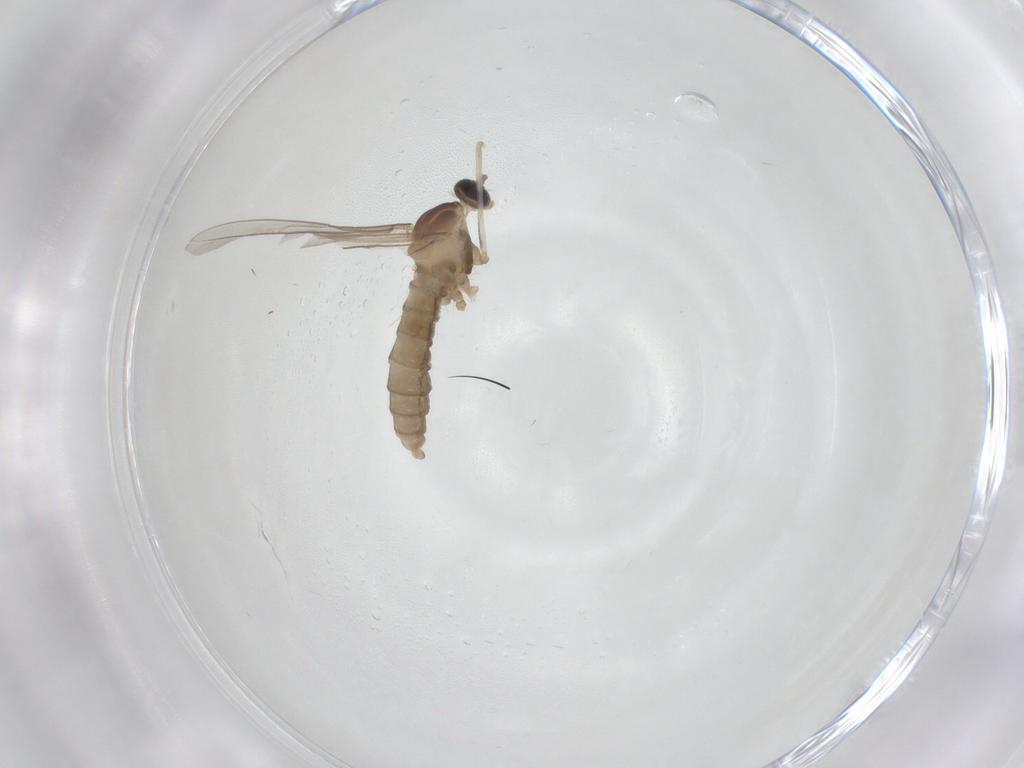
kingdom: Animalia
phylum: Arthropoda
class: Insecta
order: Diptera
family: Cecidomyiidae
